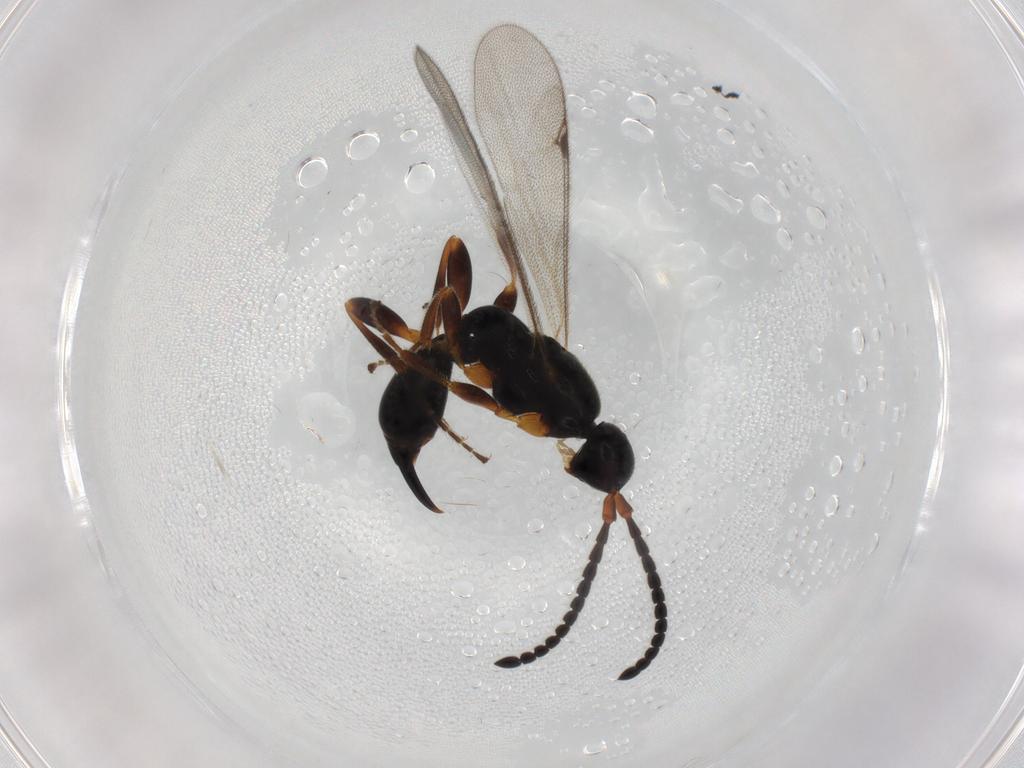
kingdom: Animalia
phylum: Arthropoda
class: Insecta
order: Hymenoptera
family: Proctotrupidae
